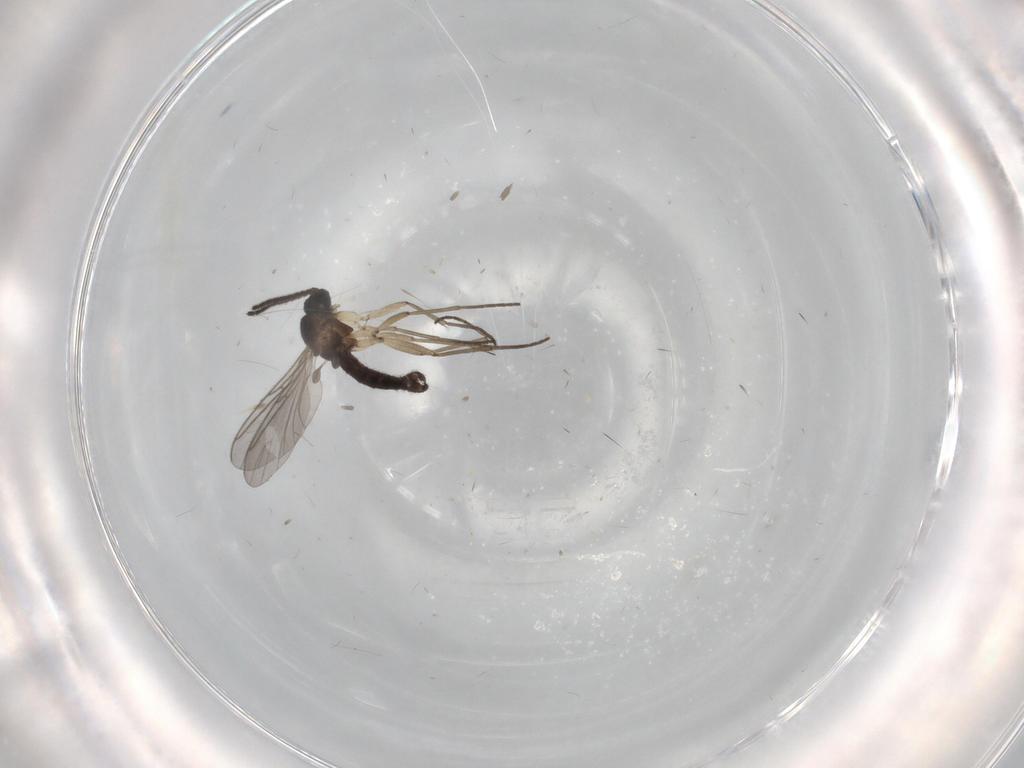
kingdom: Animalia
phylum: Arthropoda
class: Insecta
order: Diptera
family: Sciaridae
